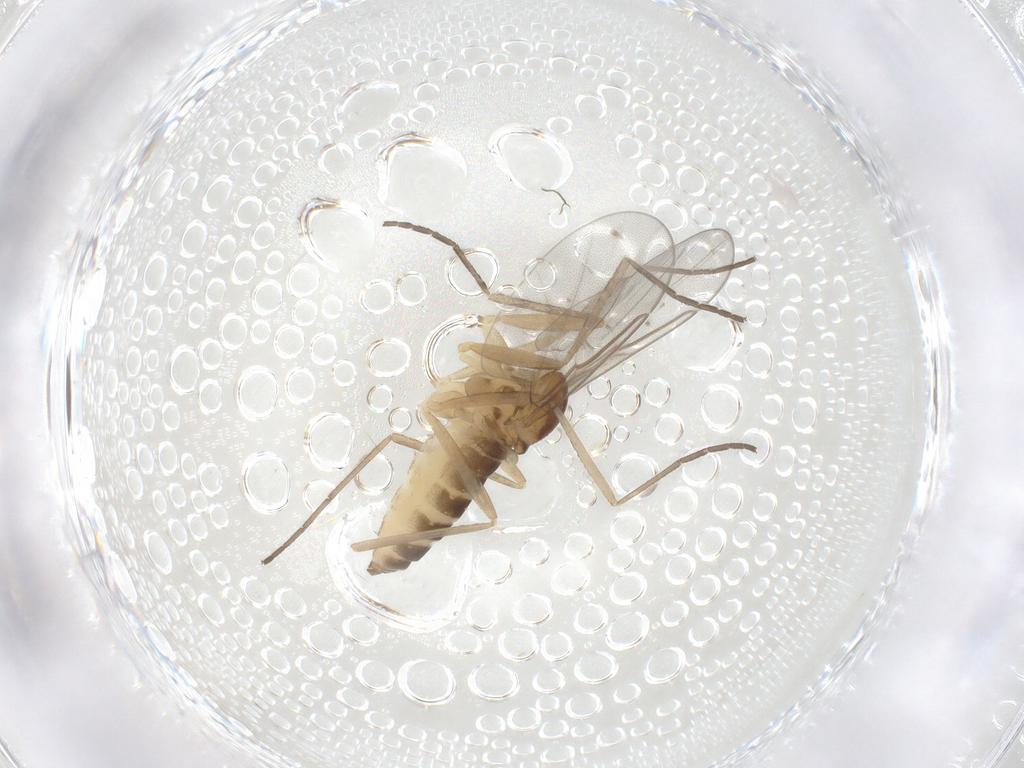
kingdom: Animalia
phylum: Arthropoda
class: Insecta
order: Diptera
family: Cecidomyiidae
